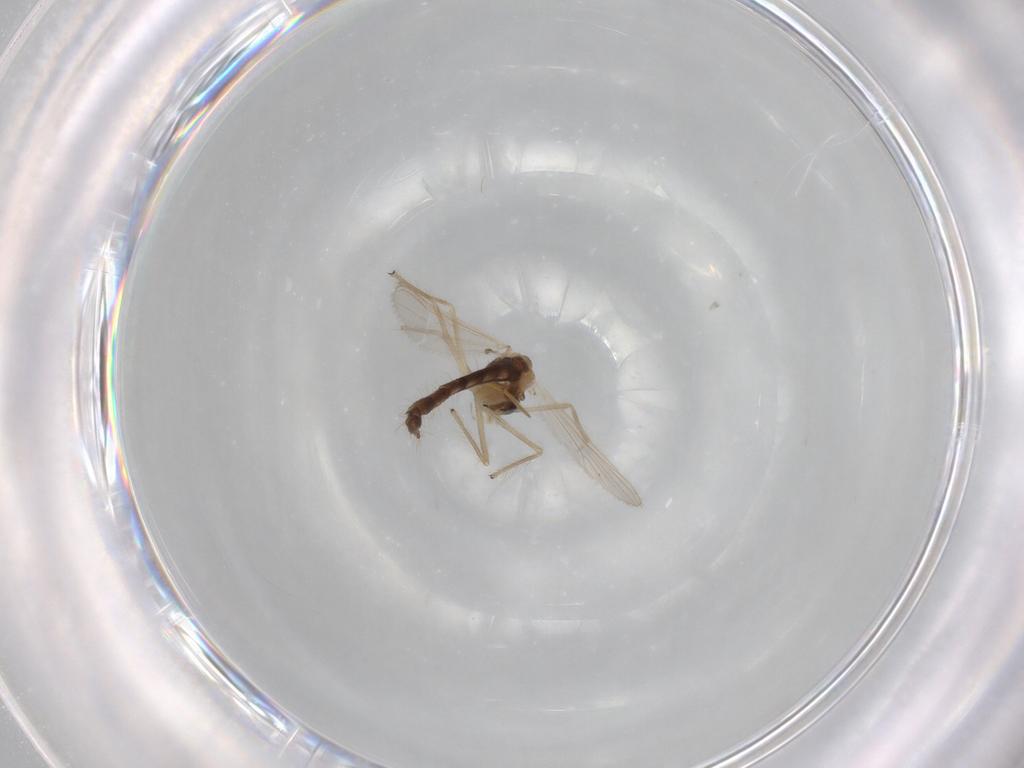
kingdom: Animalia
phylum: Arthropoda
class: Insecta
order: Diptera
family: Chironomidae
